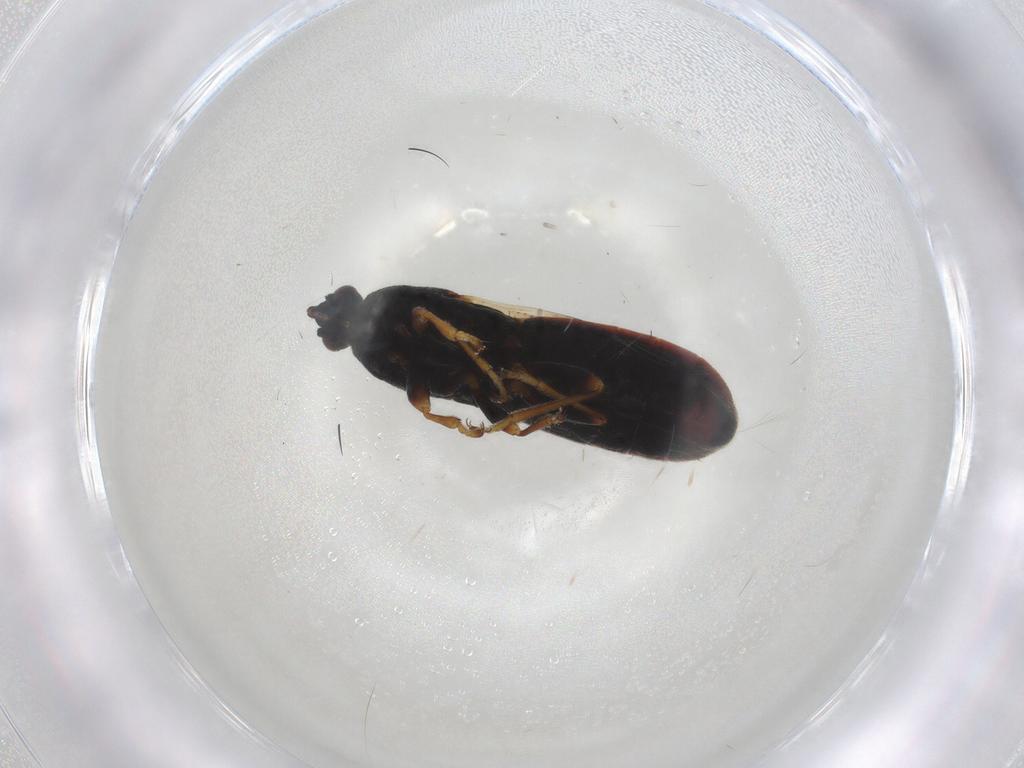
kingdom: Animalia
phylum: Arthropoda
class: Insecta
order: Hemiptera
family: Blissidae
